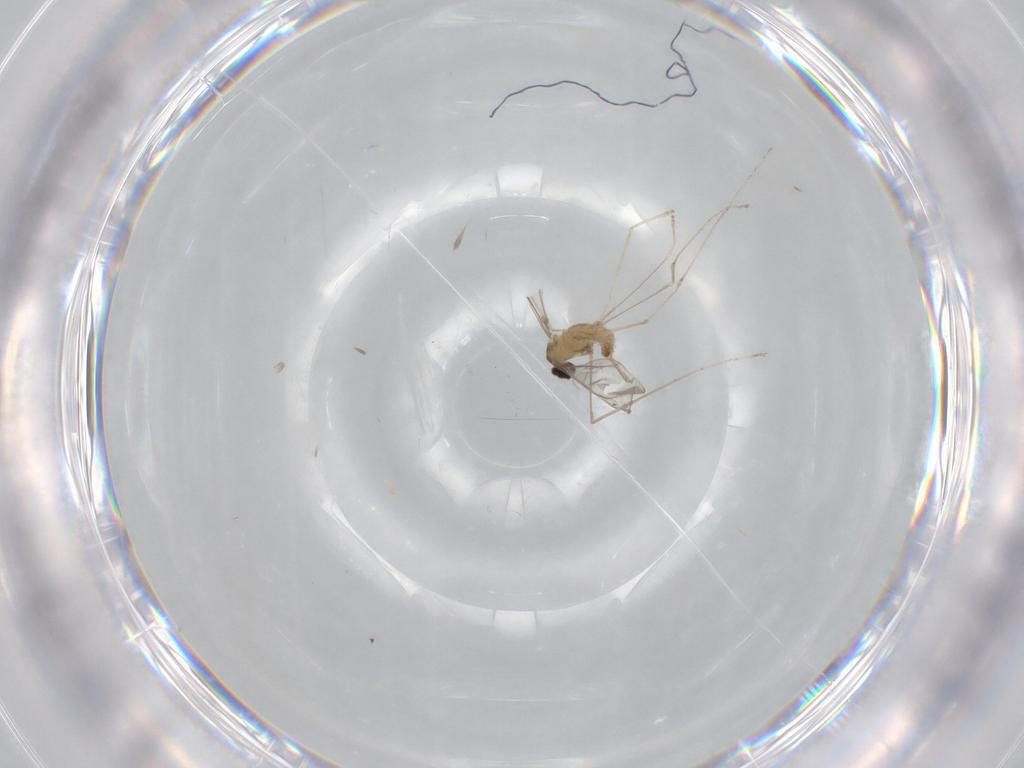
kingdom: Animalia
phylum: Arthropoda
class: Insecta
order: Diptera
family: Cecidomyiidae
